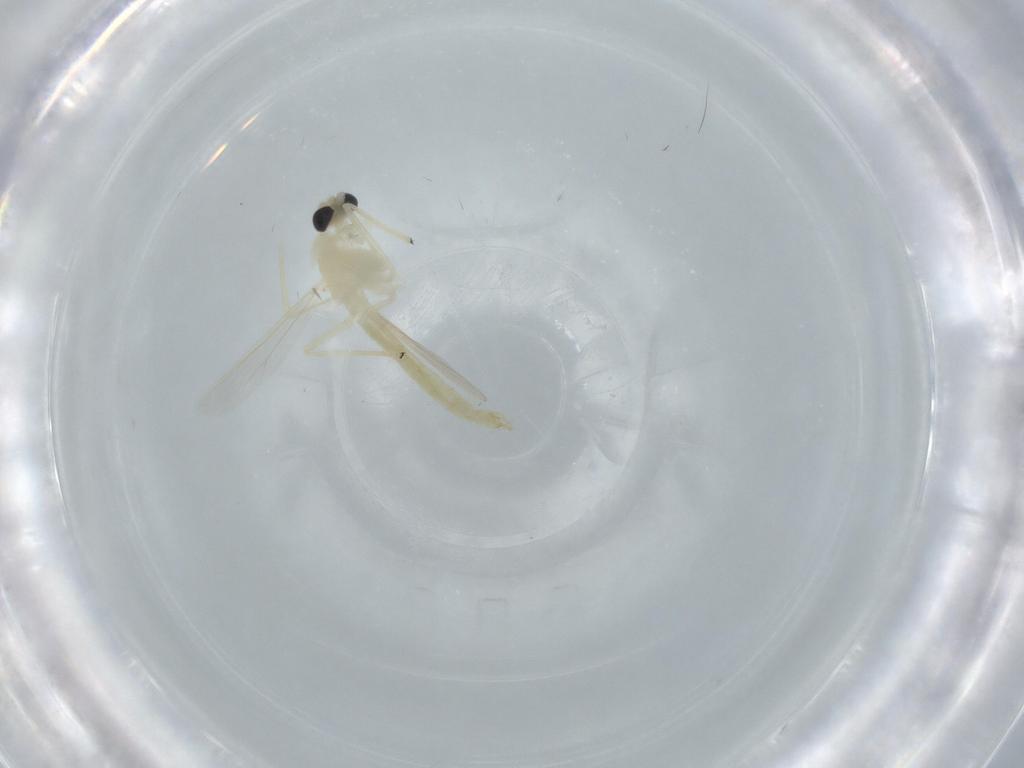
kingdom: Animalia
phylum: Arthropoda
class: Insecta
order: Diptera
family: Chironomidae
